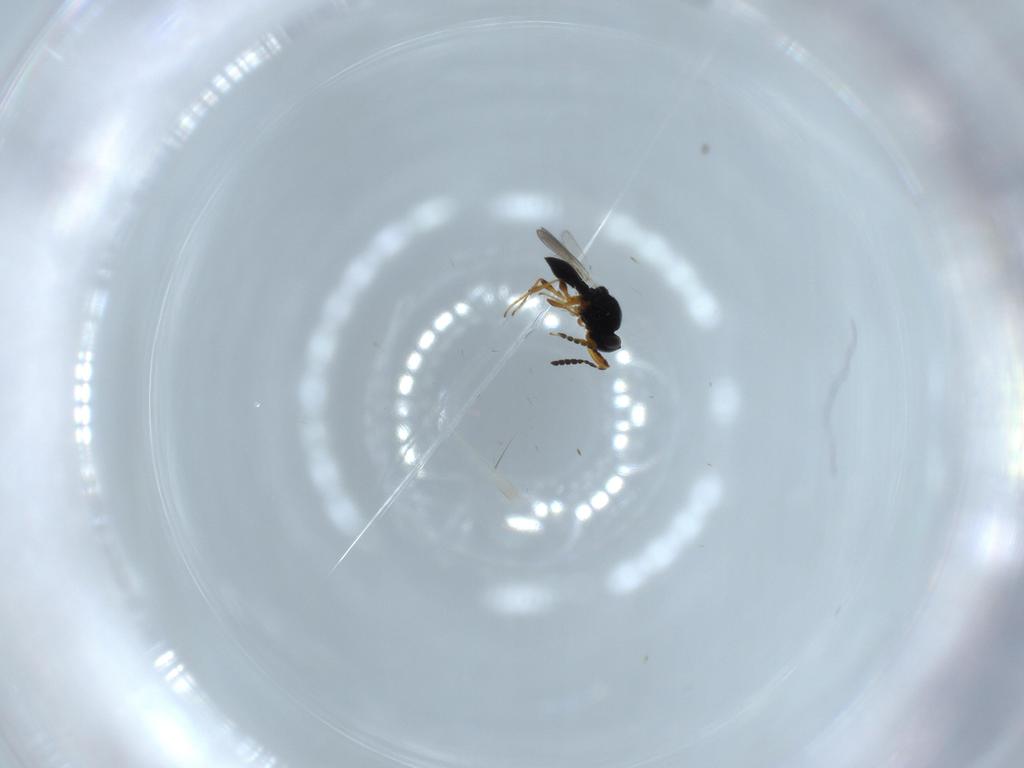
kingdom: Animalia
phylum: Arthropoda
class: Insecta
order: Hymenoptera
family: Platygastridae
